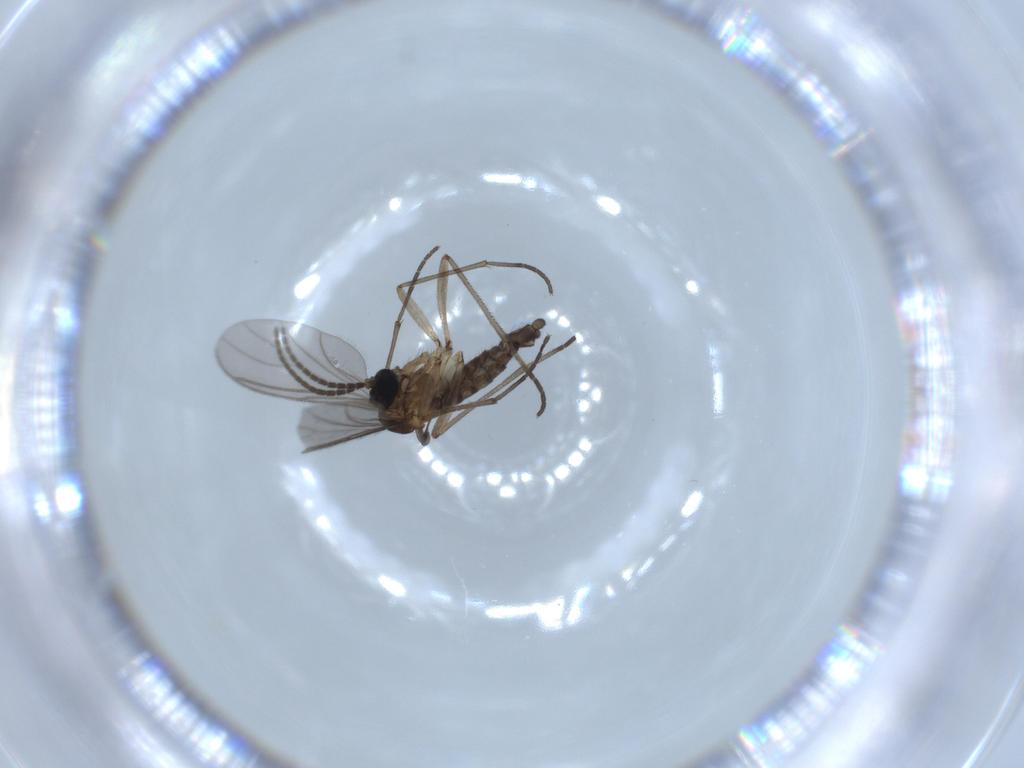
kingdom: Animalia
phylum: Arthropoda
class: Insecta
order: Diptera
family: Sciaridae
